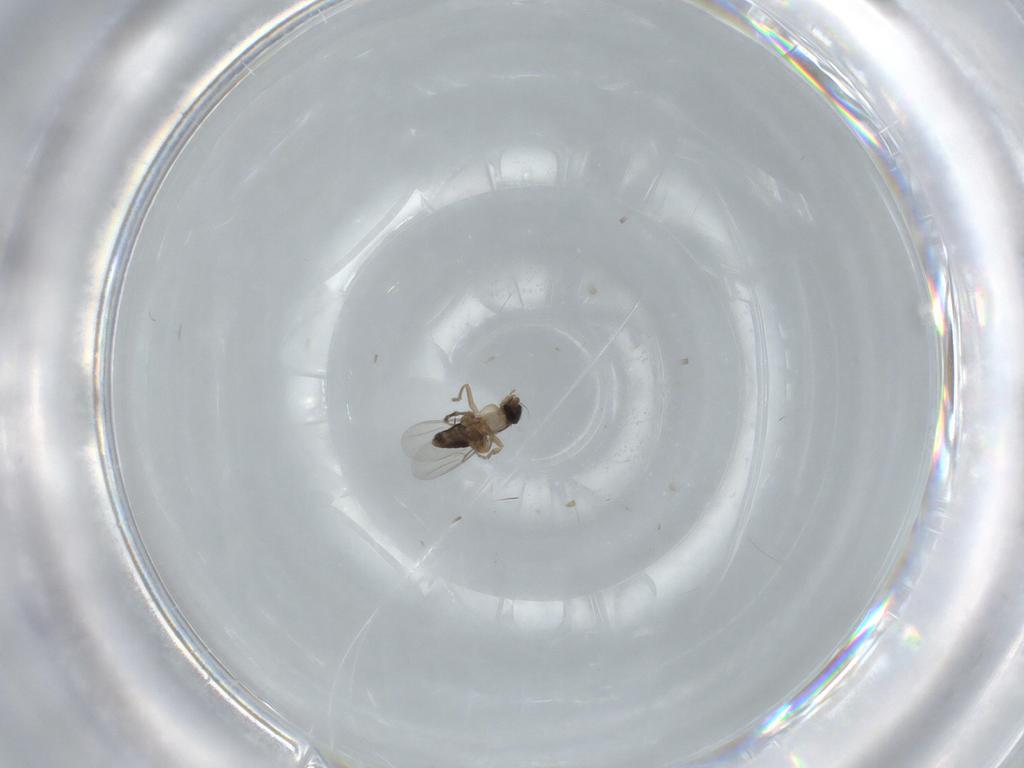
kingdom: Animalia
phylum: Arthropoda
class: Insecta
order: Diptera
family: Phoridae
